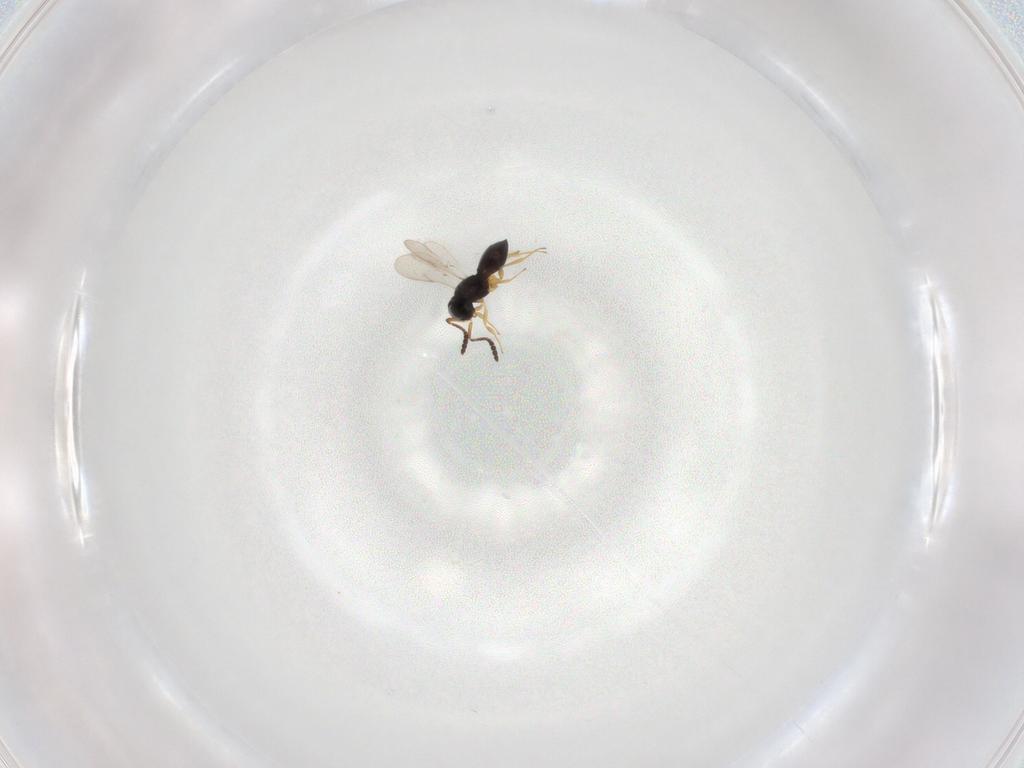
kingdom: Animalia
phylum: Arthropoda
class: Insecta
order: Hymenoptera
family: Scelionidae
